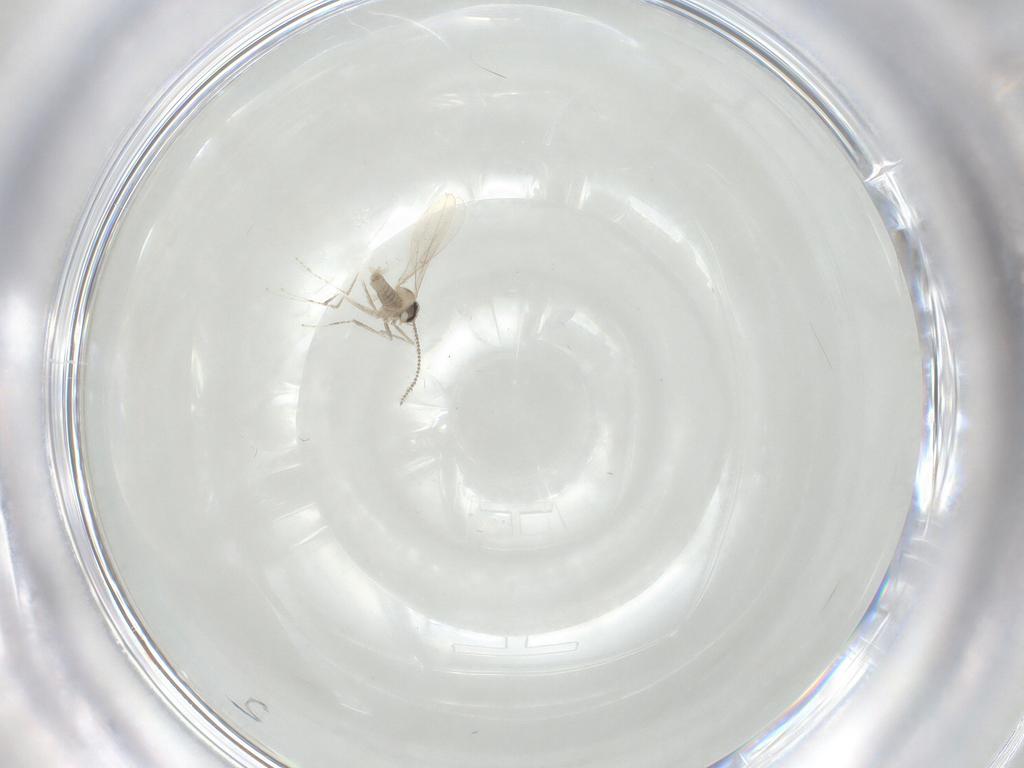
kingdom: Animalia
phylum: Arthropoda
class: Insecta
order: Diptera
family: Cecidomyiidae
